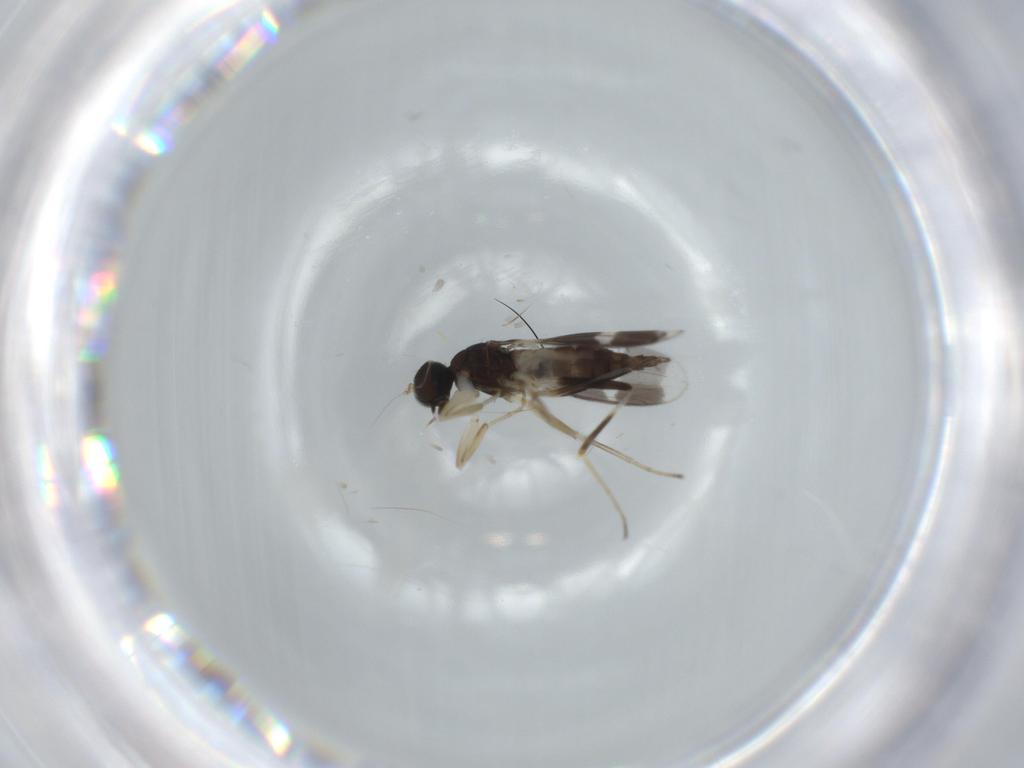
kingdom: Animalia
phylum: Arthropoda
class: Insecta
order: Diptera
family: Hybotidae
